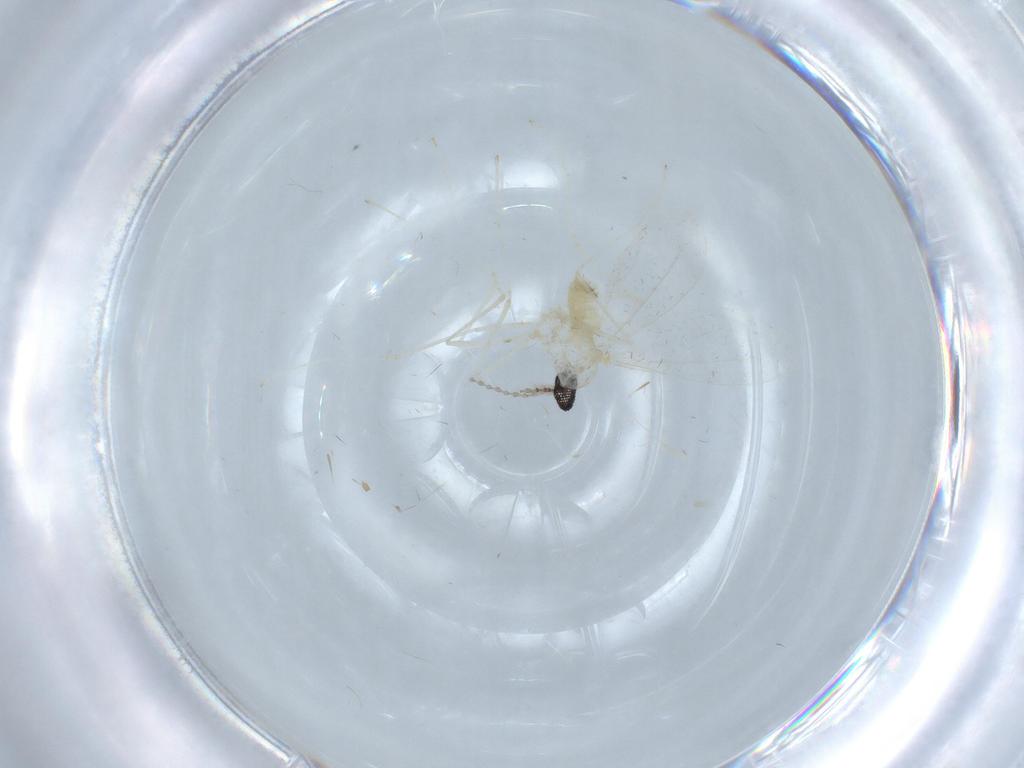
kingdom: Animalia
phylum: Arthropoda
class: Insecta
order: Diptera
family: Cecidomyiidae
